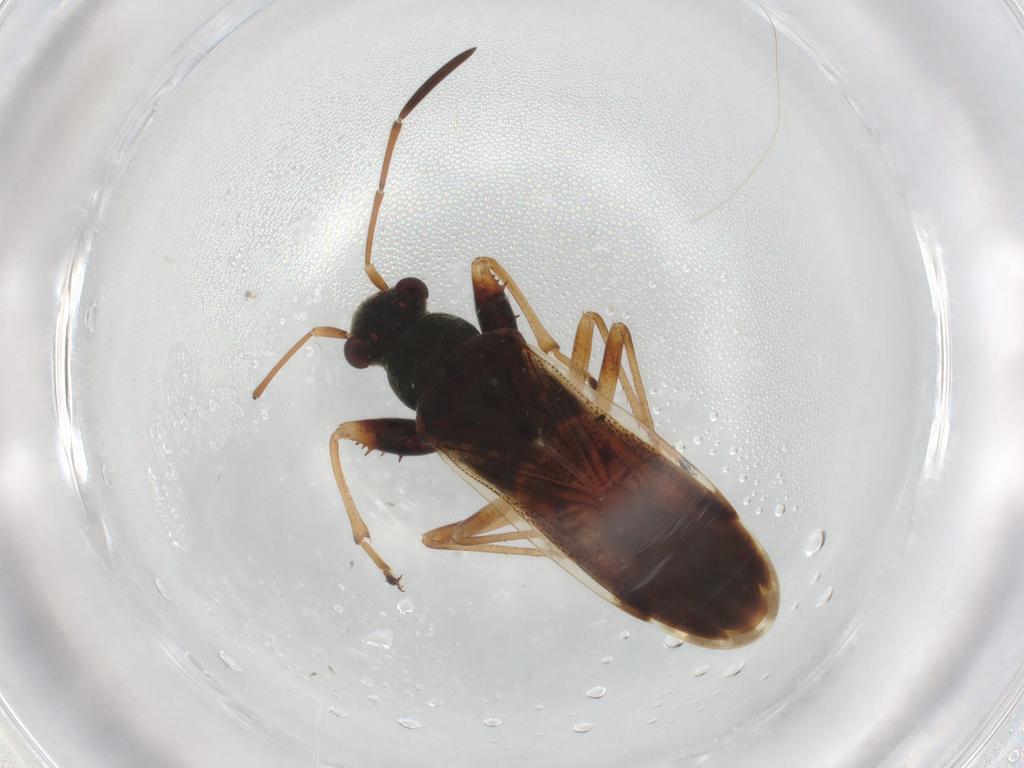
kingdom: Animalia
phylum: Arthropoda
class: Insecta
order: Hemiptera
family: Rhyparochromidae
